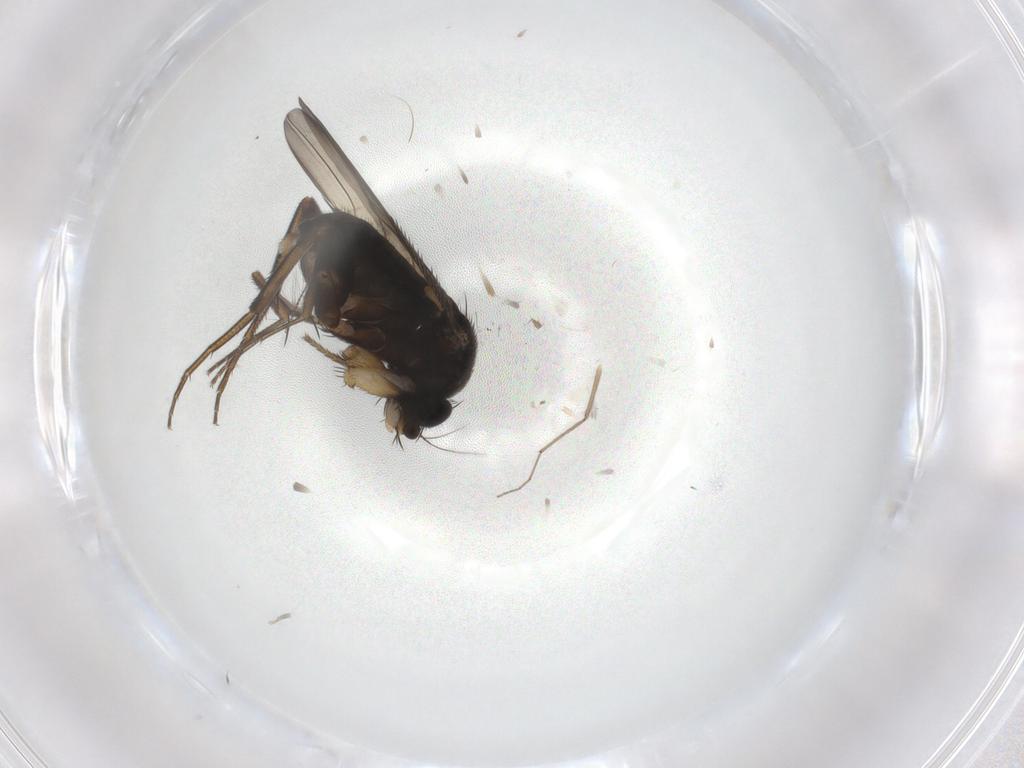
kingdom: Animalia
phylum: Arthropoda
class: Insecta
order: Diptera
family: Phoridae
